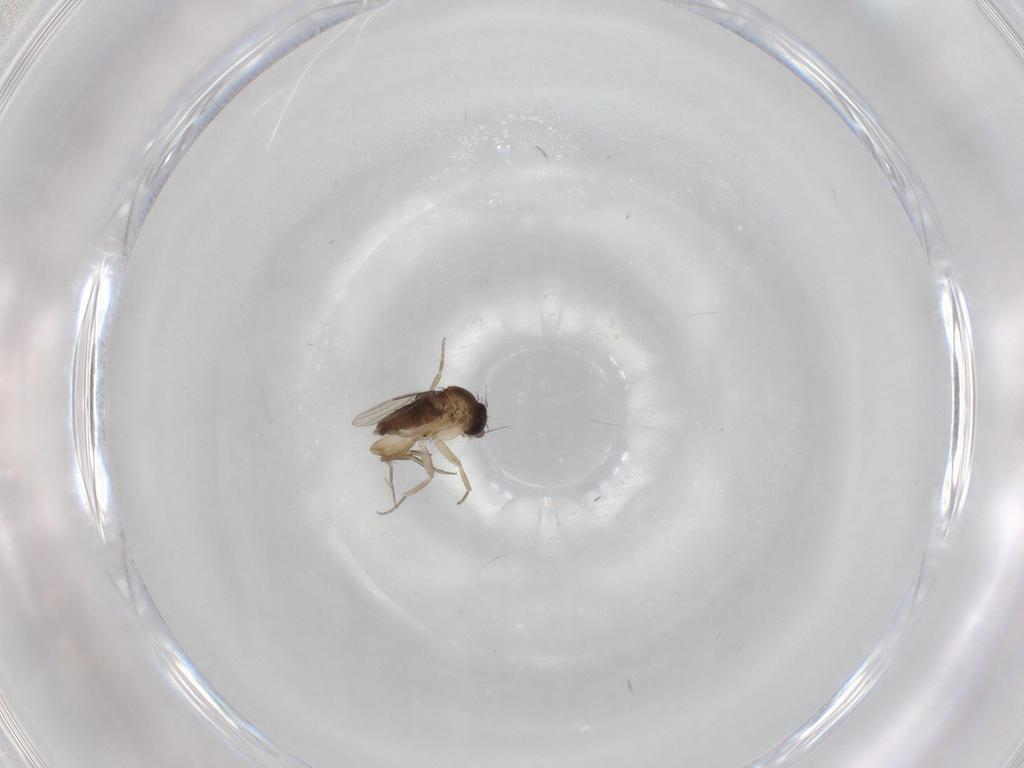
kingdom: Animalia
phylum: Arthropoda
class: Insecta
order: Diptera
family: Phoridae
